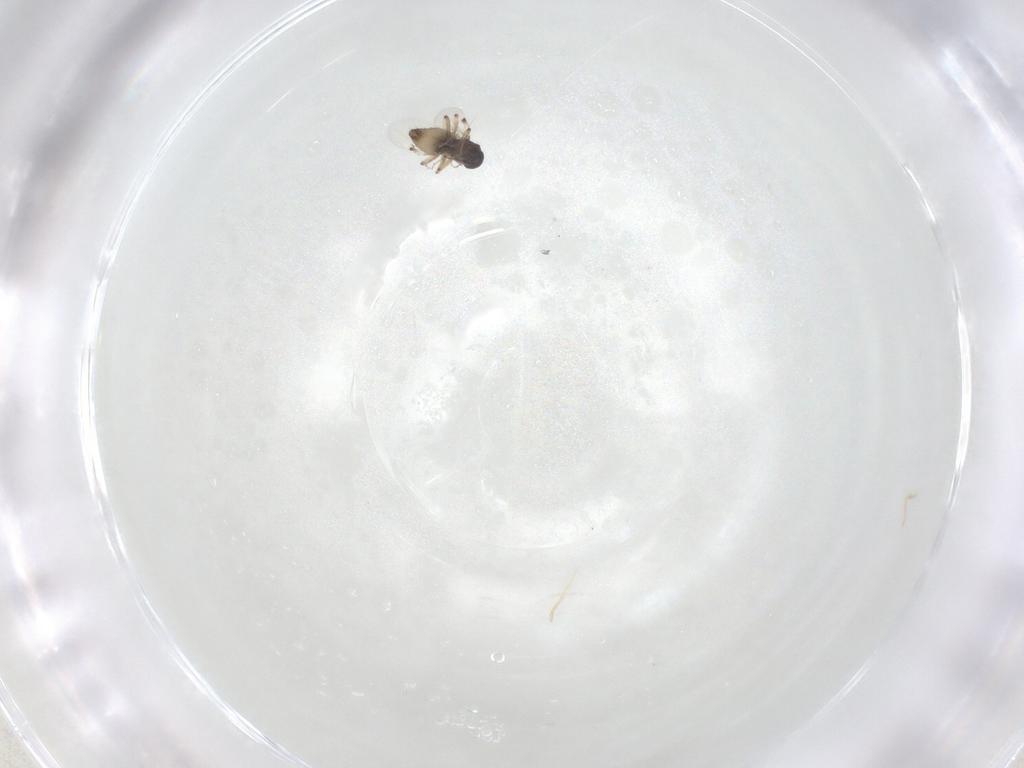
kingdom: Animalia
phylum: Arthropoda
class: Insecta
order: Diptera
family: Ceratopogonidae
